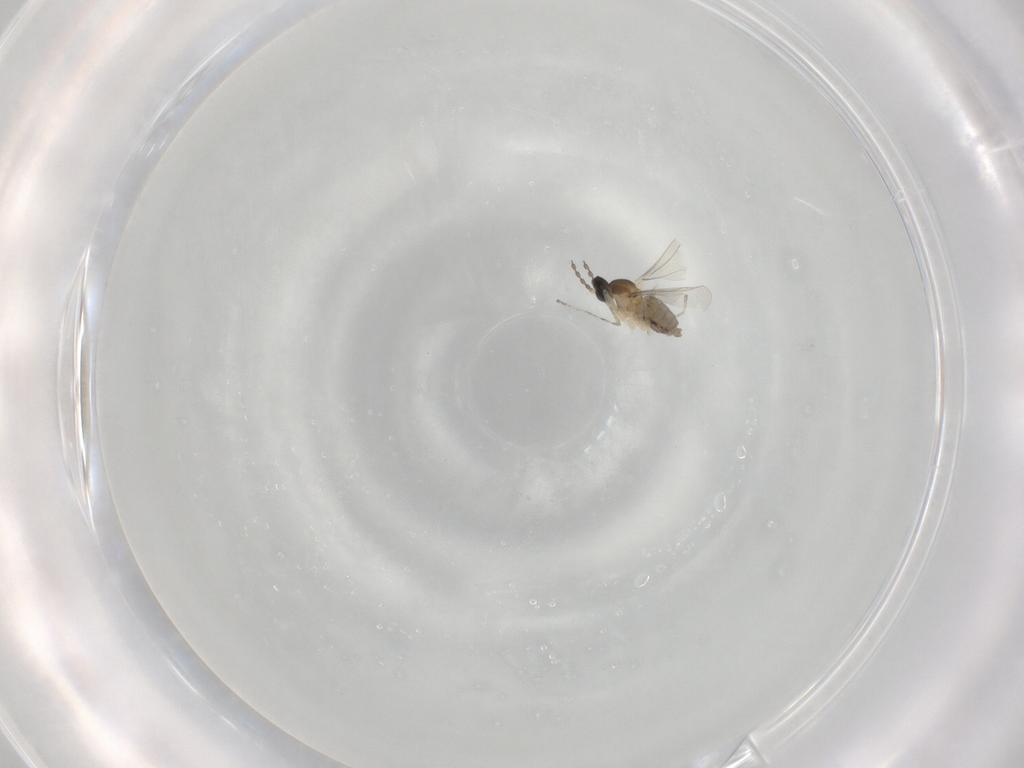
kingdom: Animalia
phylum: Arthropoda
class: Insecta
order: Diptera
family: Cecidomyiidae
